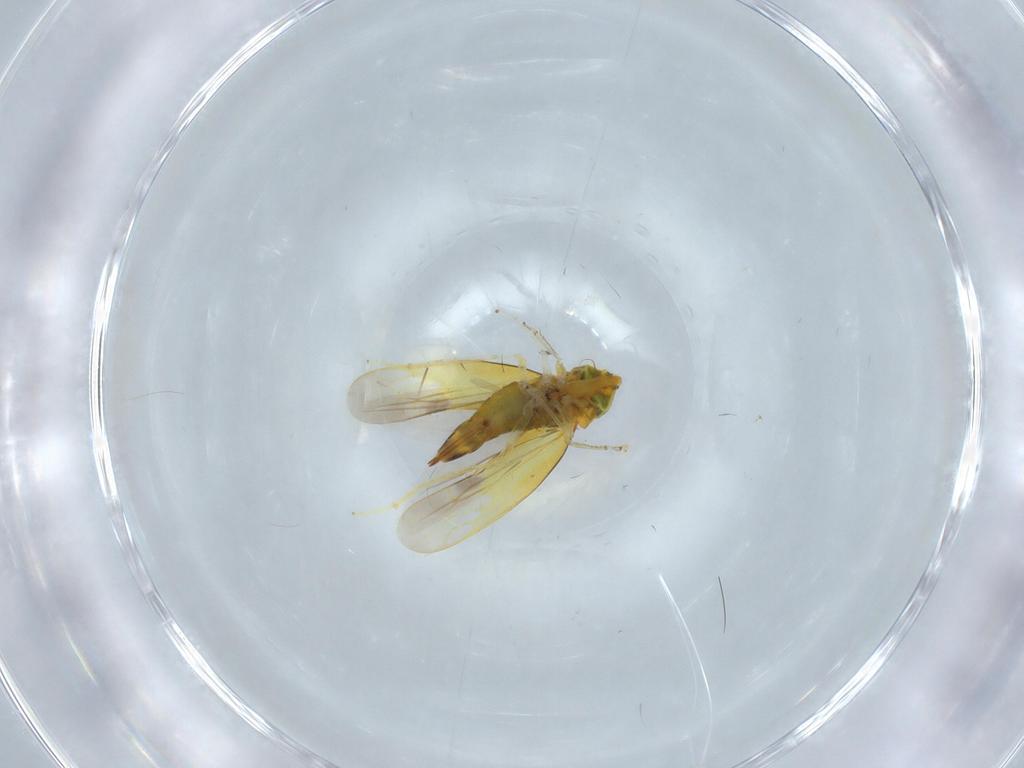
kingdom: Animalia
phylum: Arthropoda
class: Insecta
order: Hemiptera
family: Cicadellidae
